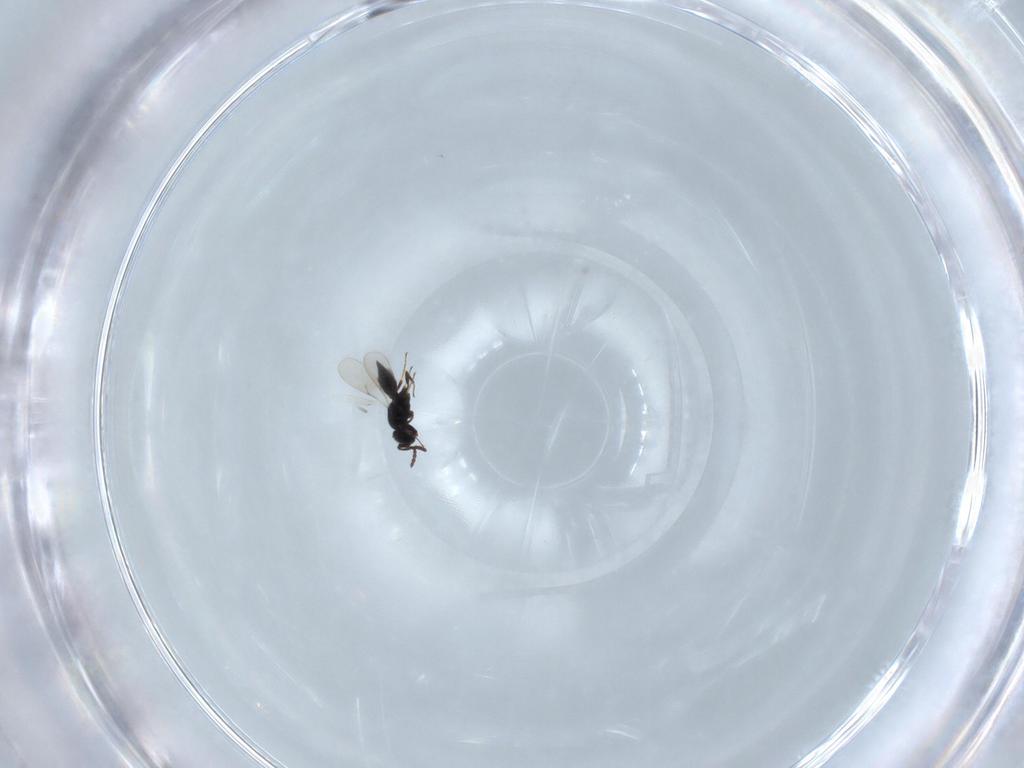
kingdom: Animalia
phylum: Arthropoda
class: Insecta
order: Hymenoptera
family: Scelionidae
